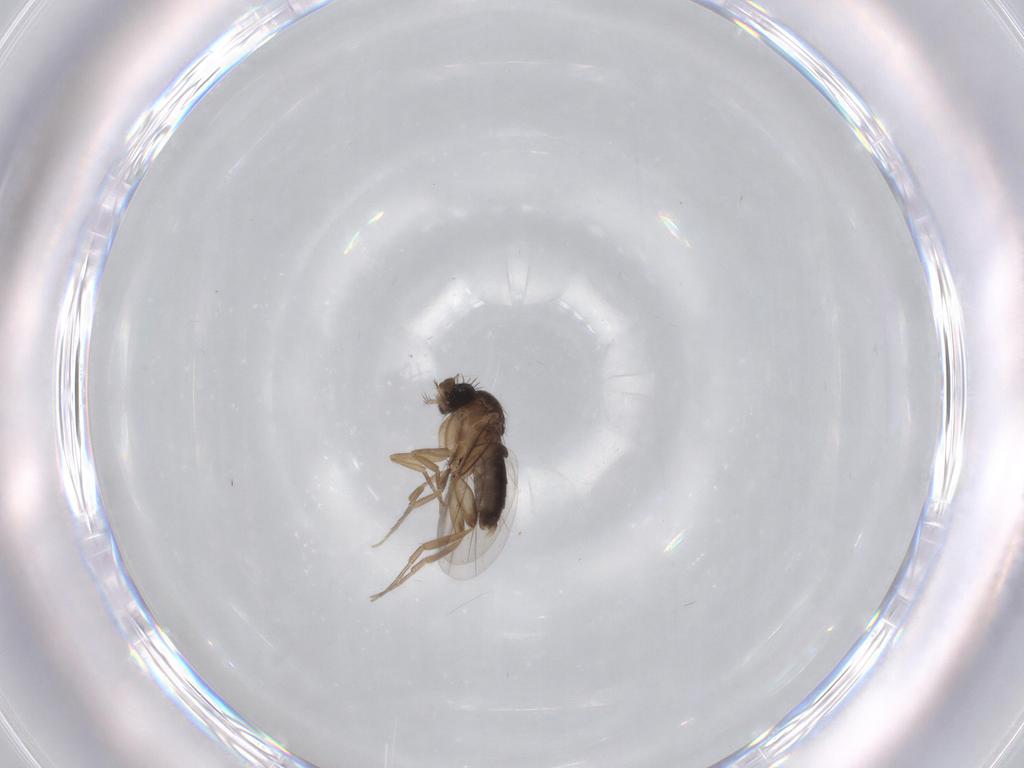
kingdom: Animalia
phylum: Arthropoda
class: Insecta
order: Diptera
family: Phoridae
